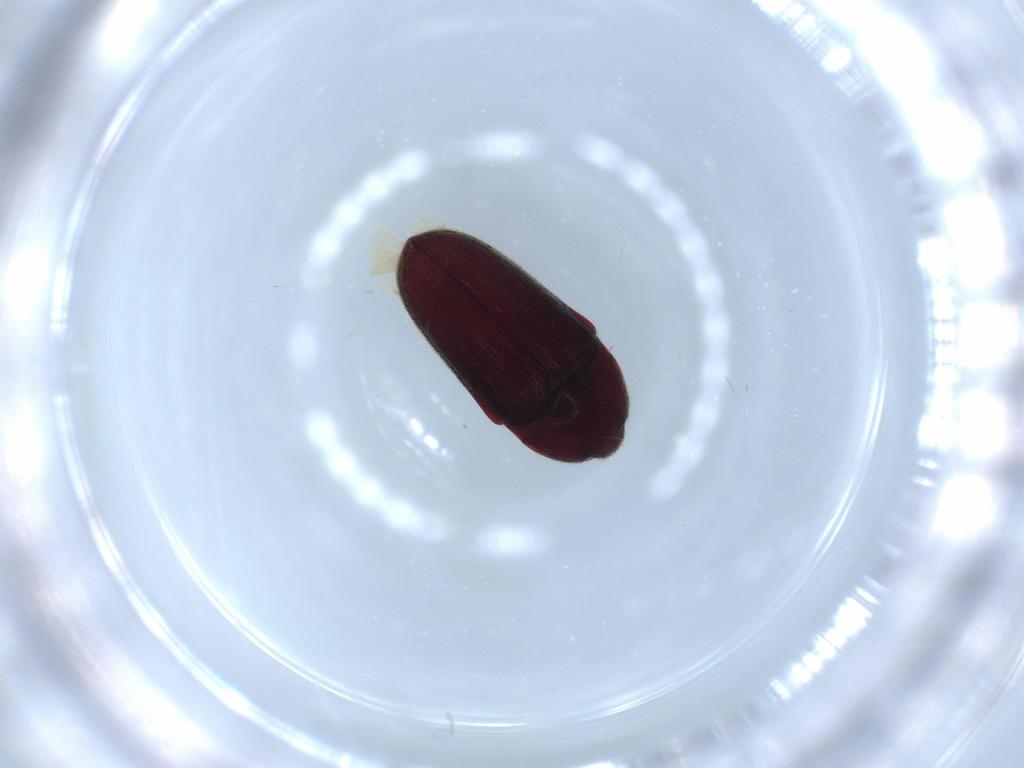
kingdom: Animalia
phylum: Arthropoda
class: Insecta
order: Coleoptera
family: Throscidae
